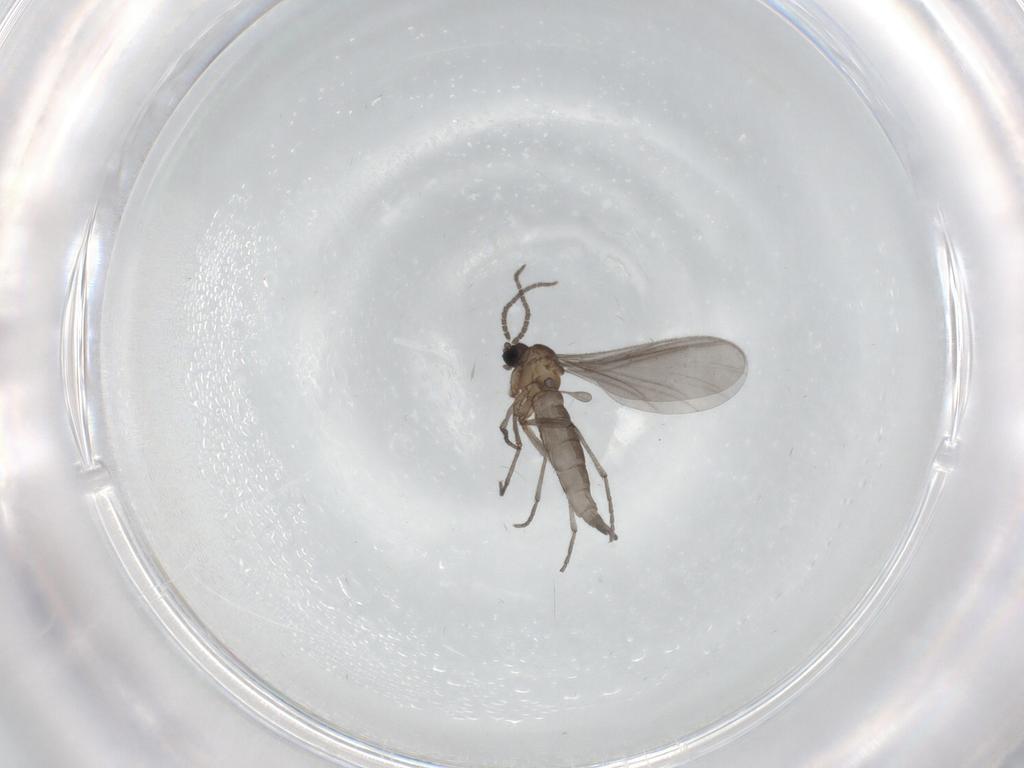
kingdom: Animalia
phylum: Arthropoda
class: Insecta
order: Diptera
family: Sciaridae
